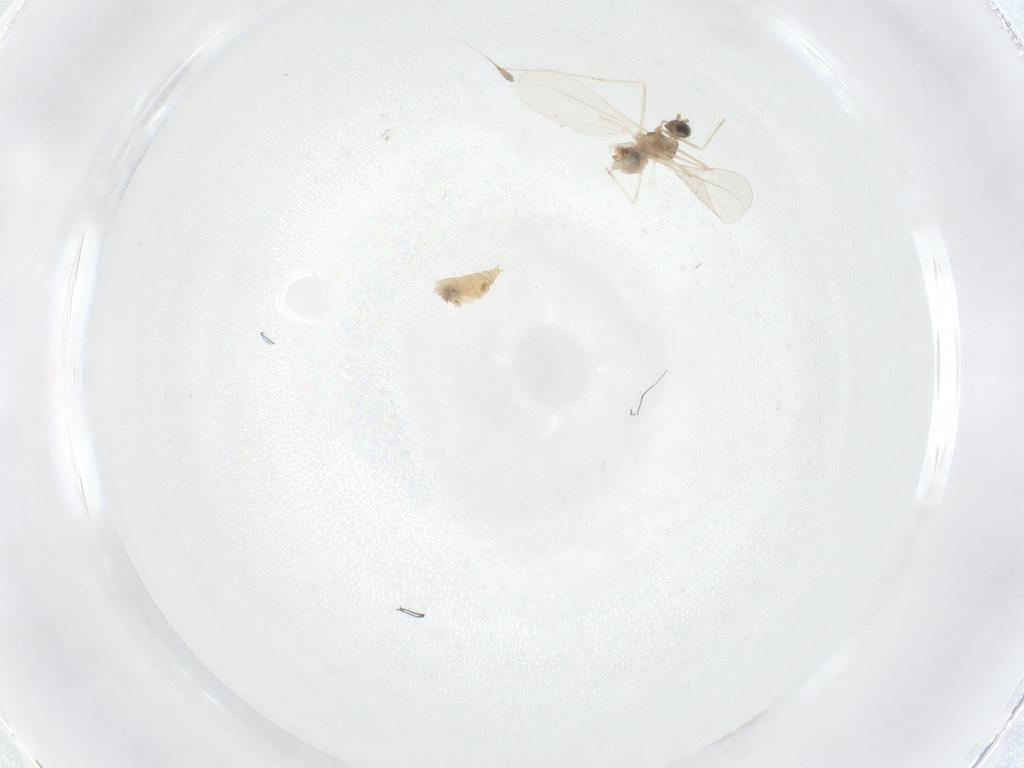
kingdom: Animalia
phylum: Arthropoda
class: Insecta
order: Diptera
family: Cecidomyiidae
